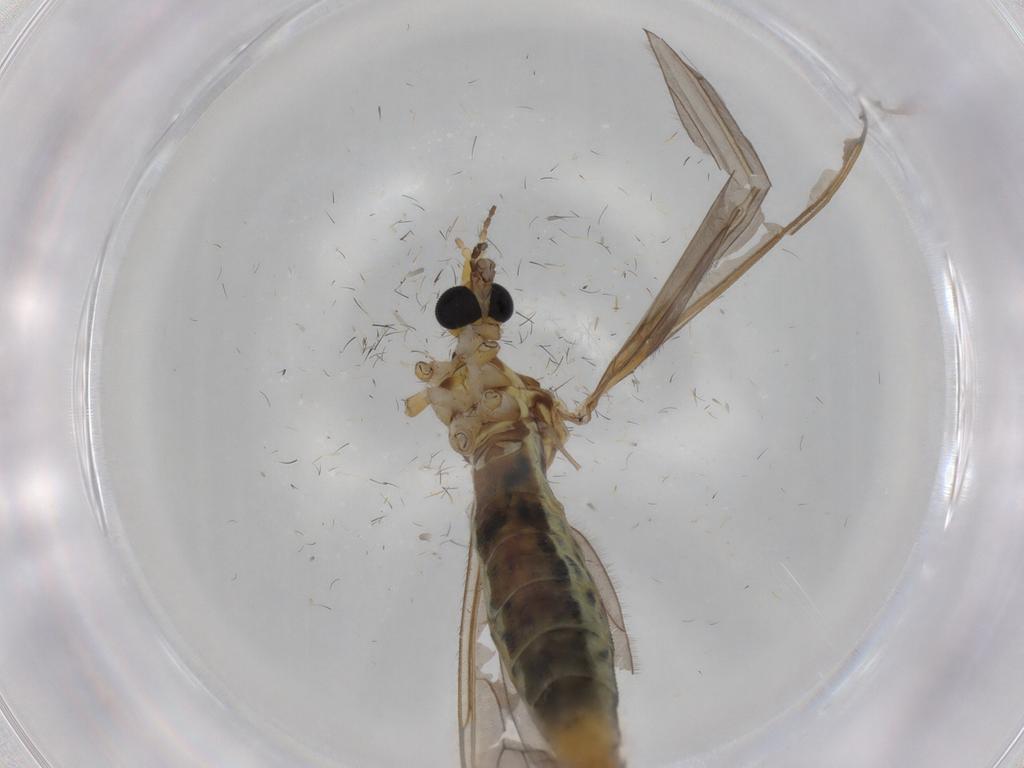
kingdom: Animalia
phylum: Arthropoda
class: Insecta
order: Diptera
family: Limoniidae
